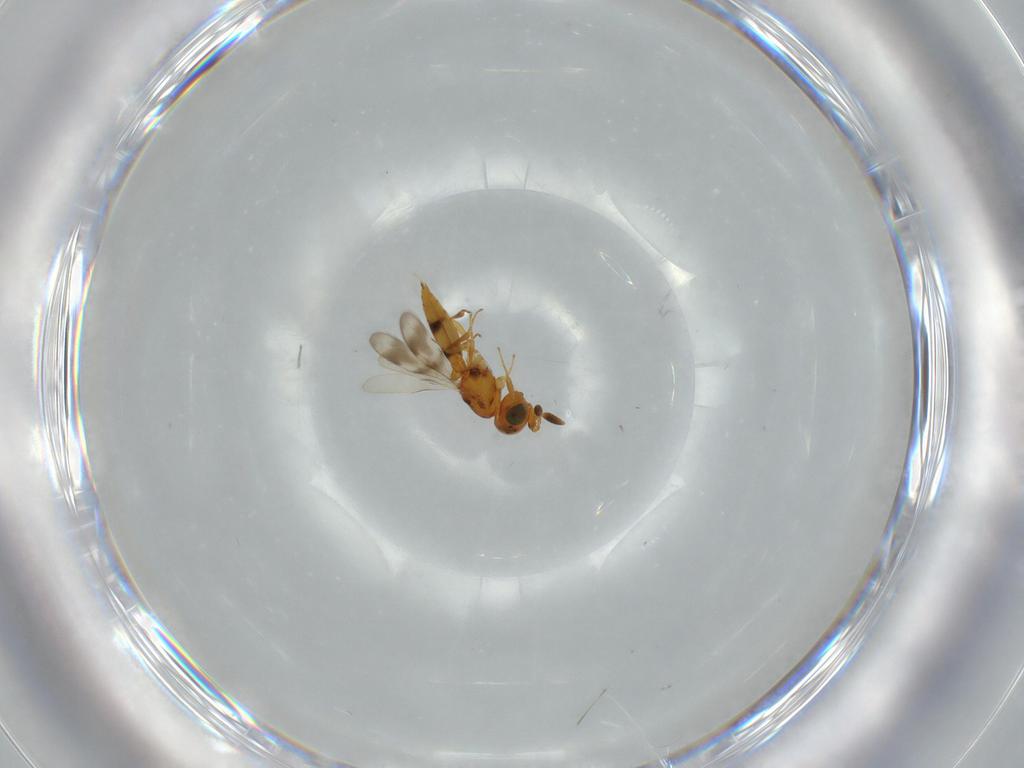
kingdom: Animalia
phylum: Arthropoda
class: Insecta
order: Hymenoptera
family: Scelionidae
